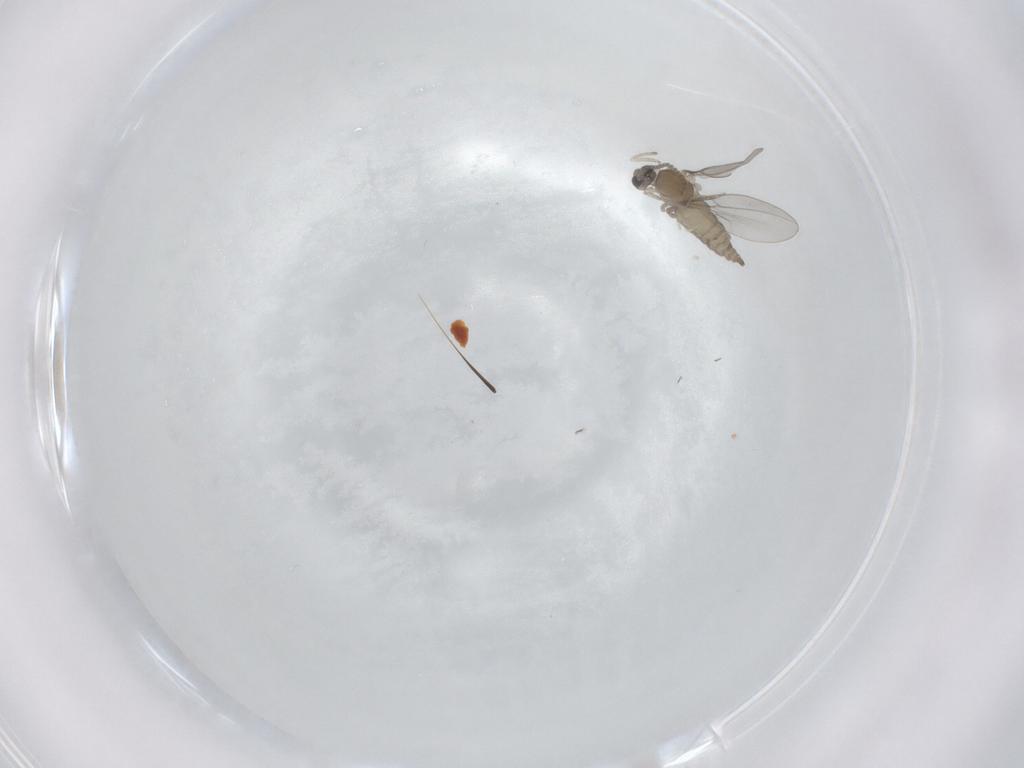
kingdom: Animalia
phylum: Arthropoda
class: Insecta
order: Diptera
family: Cecidomyiidae
